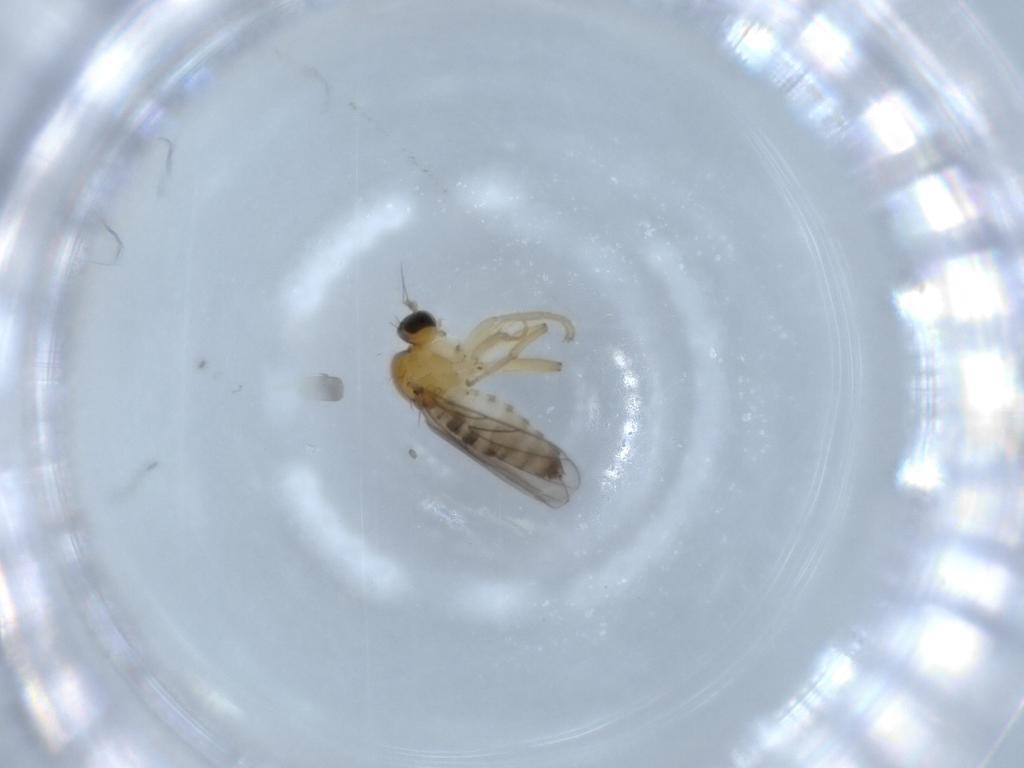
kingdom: Animalia
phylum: Arthropoda
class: Insecta
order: Diptera
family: Hybotidae
